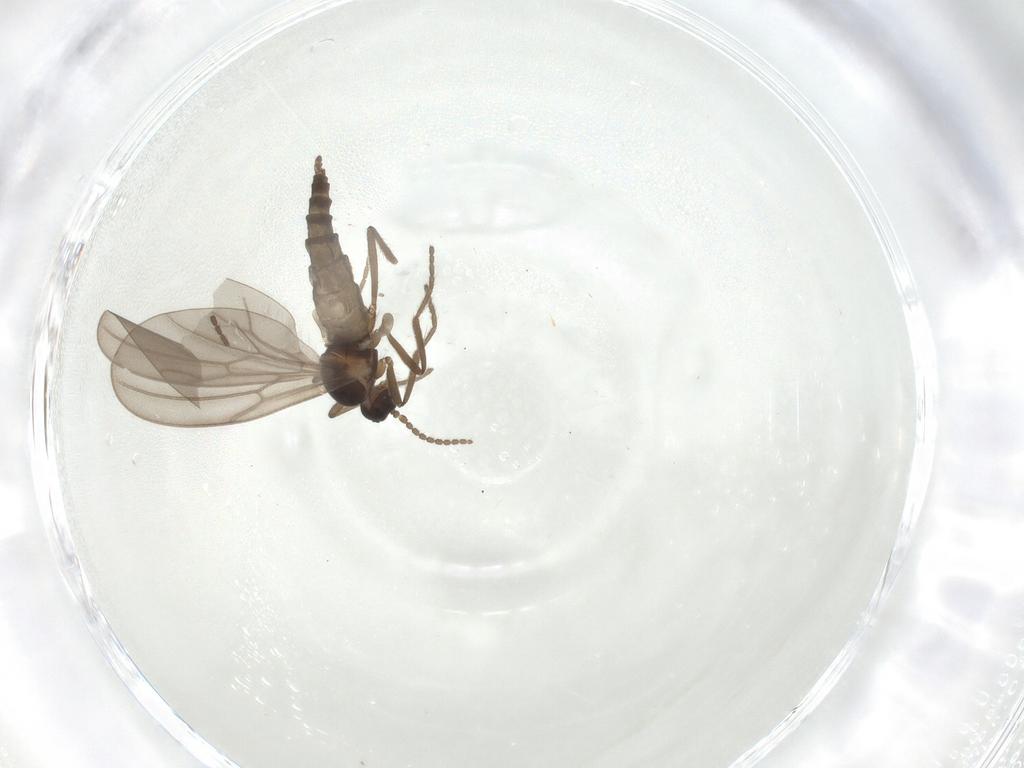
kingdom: Animalia
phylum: Arthropoda
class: Insecta
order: Diptera
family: Cecidomyiidae
